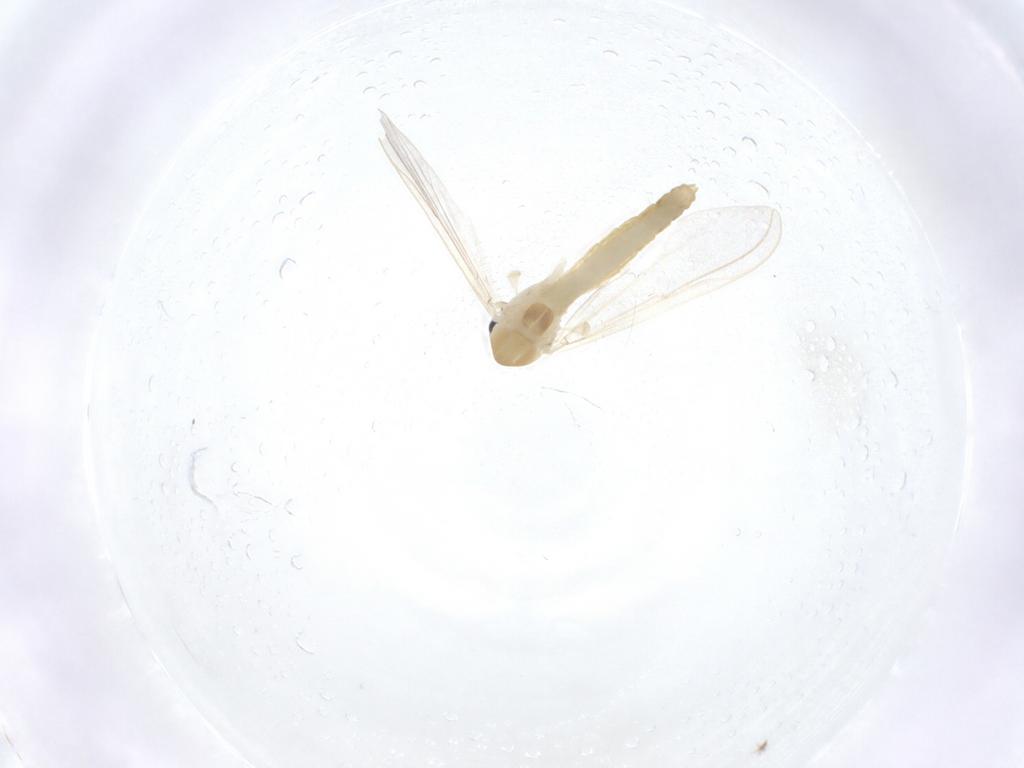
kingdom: Animalia
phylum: Arthropoda
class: Insecta
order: Diptera
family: Chironomidae
